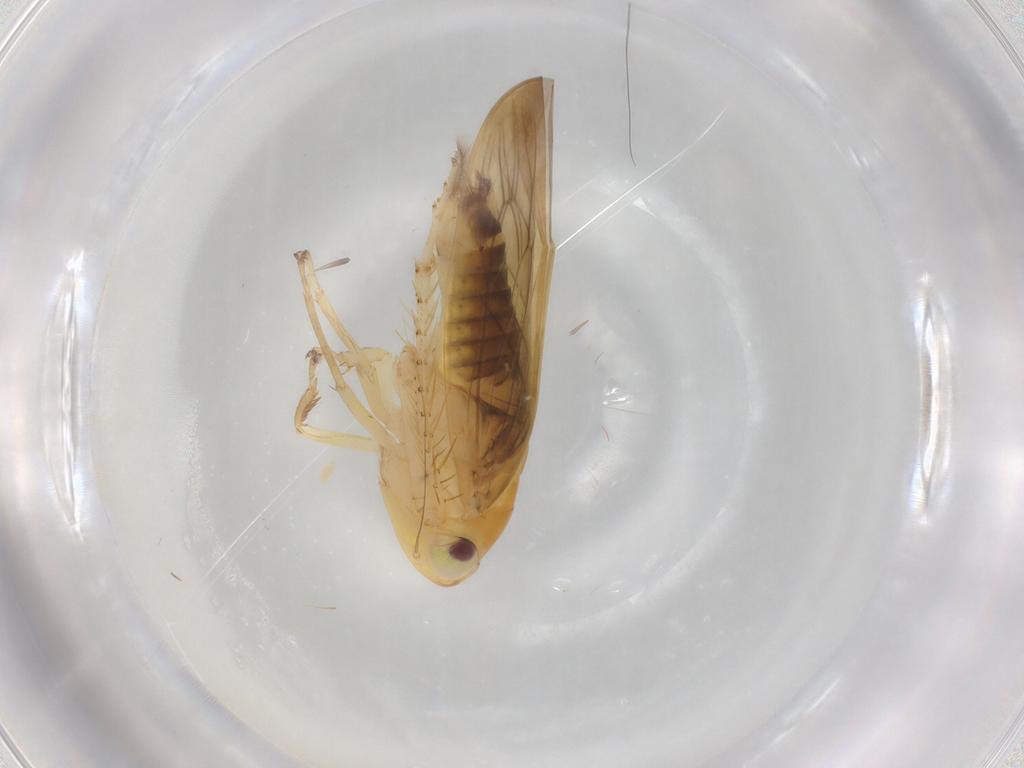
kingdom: Animalia
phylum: Arthropoda
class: Insecta
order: Hemiptera
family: Cicadellidae
